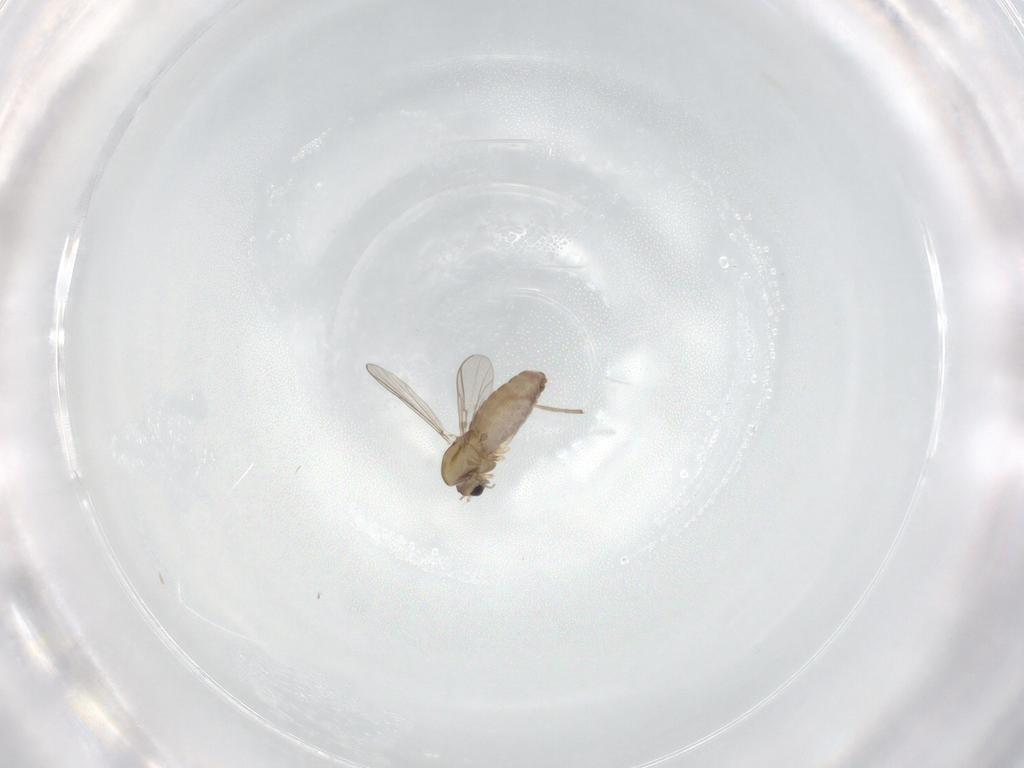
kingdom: Animalia
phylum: Arthropoda
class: Insecta
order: Diptera
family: Chironomidae
